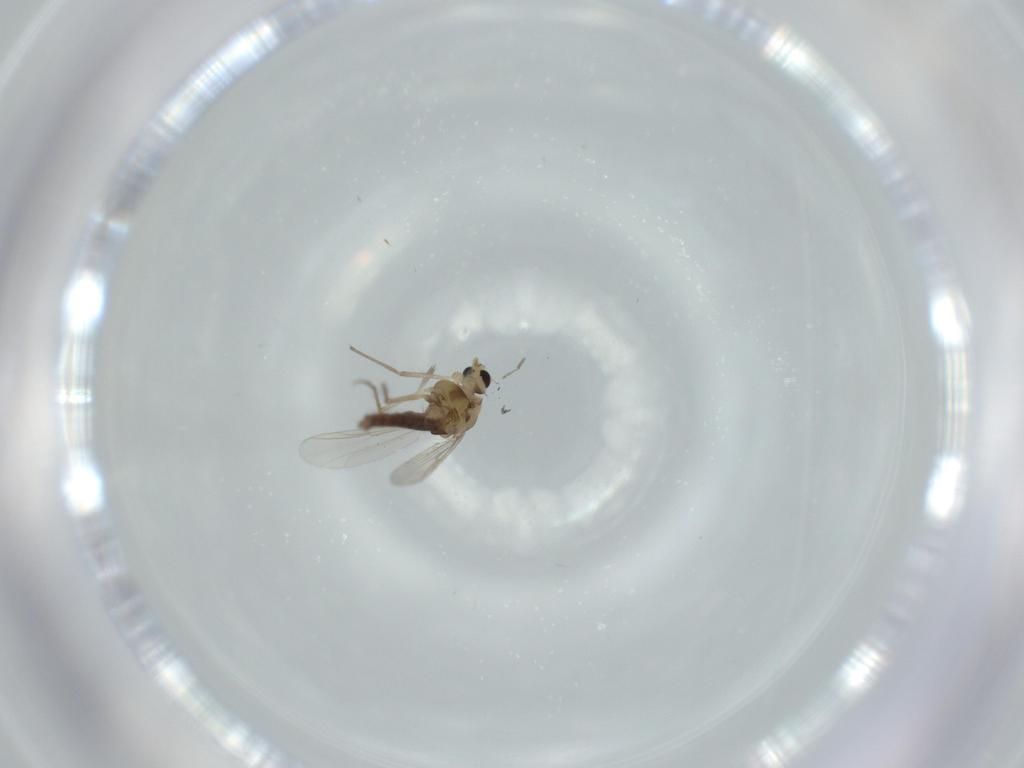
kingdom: Animalia
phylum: Arthropoda
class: Insecta
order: Diptera
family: Chironomidae
